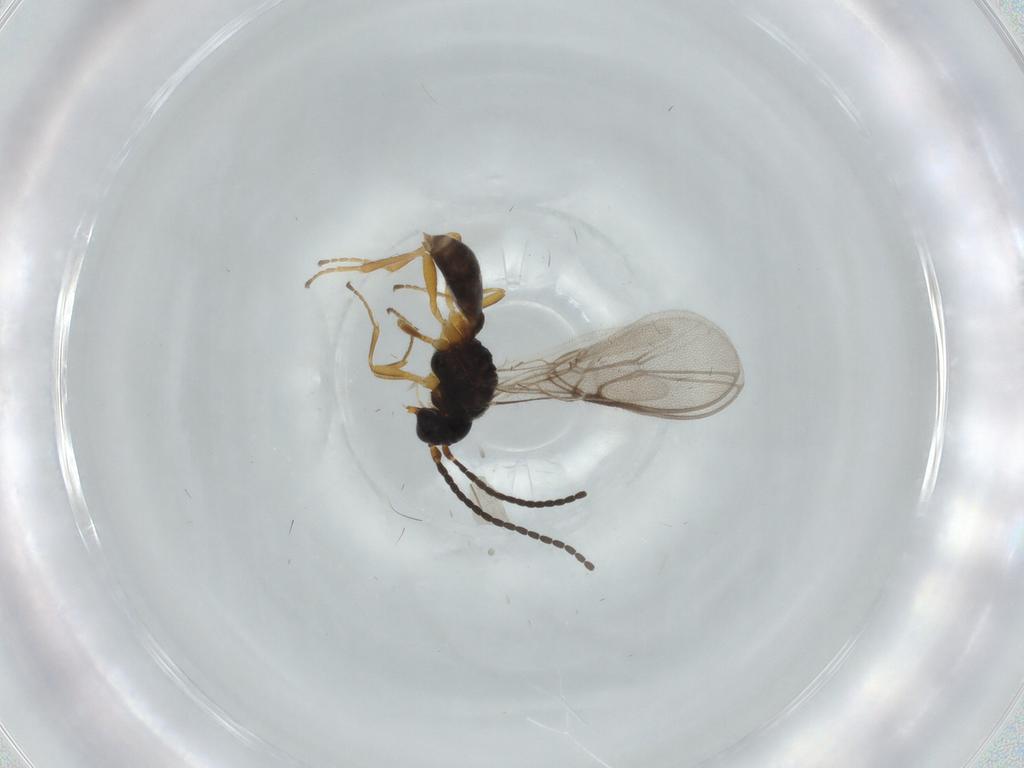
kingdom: Animalia
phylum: Arthropoda
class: Insecta
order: Hymenoptera
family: Braconidae
